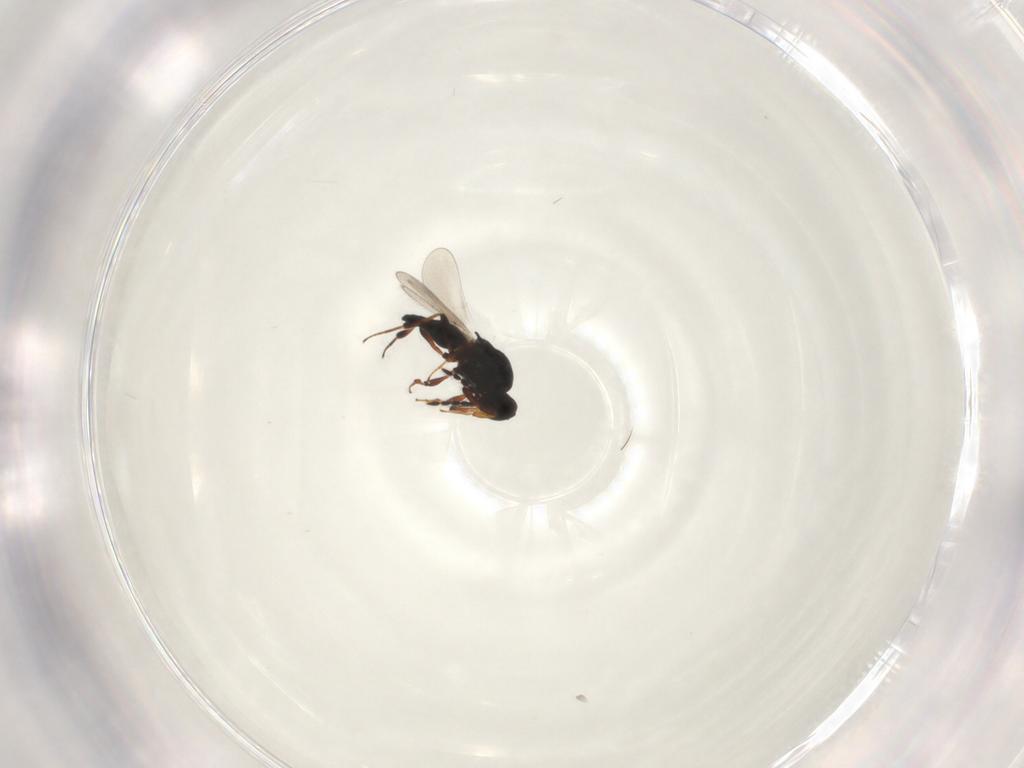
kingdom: Animalia
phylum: Arthropoda
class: Insecta
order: Hymenoptera
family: Platygastridae
